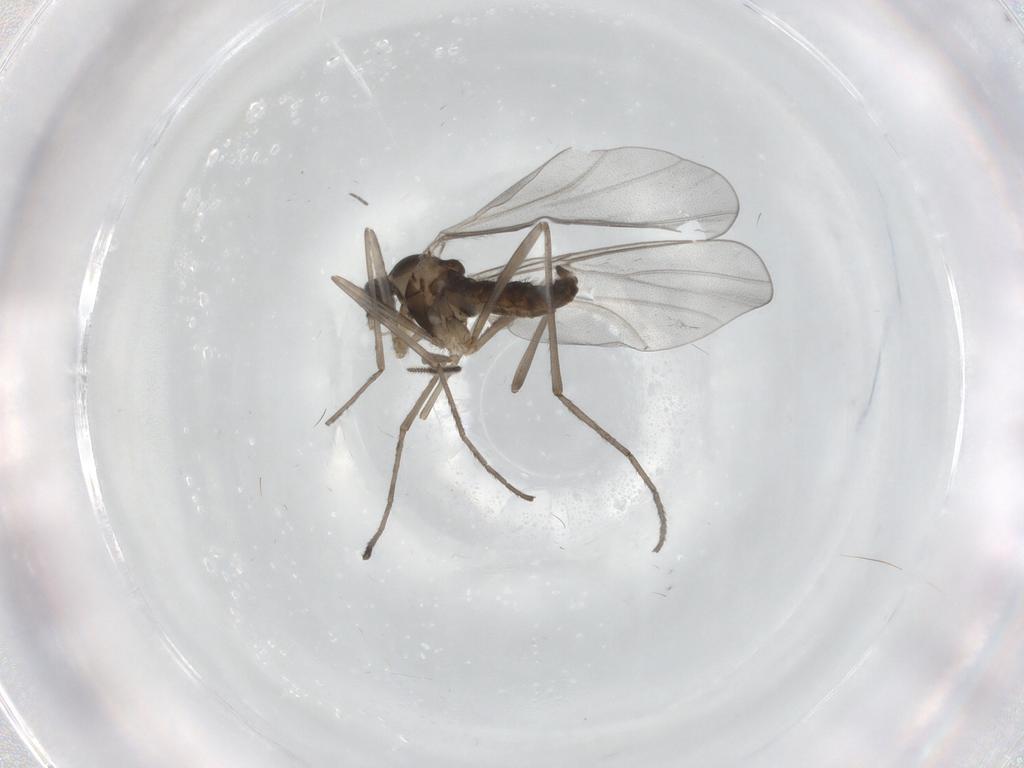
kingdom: Animalia
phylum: Arthropoda
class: Insecta
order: Diptera
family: Cecidomyiidae
